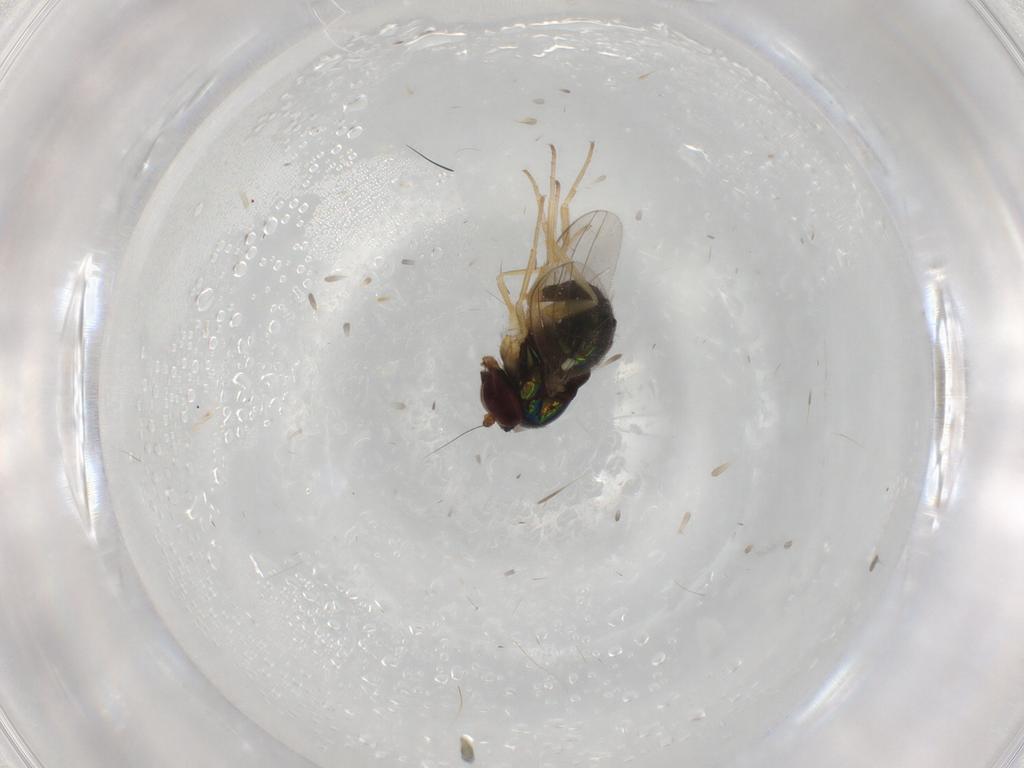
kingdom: Animalia
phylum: Arthropoda
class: Insecta
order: Diptera
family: Dolichopodidae
